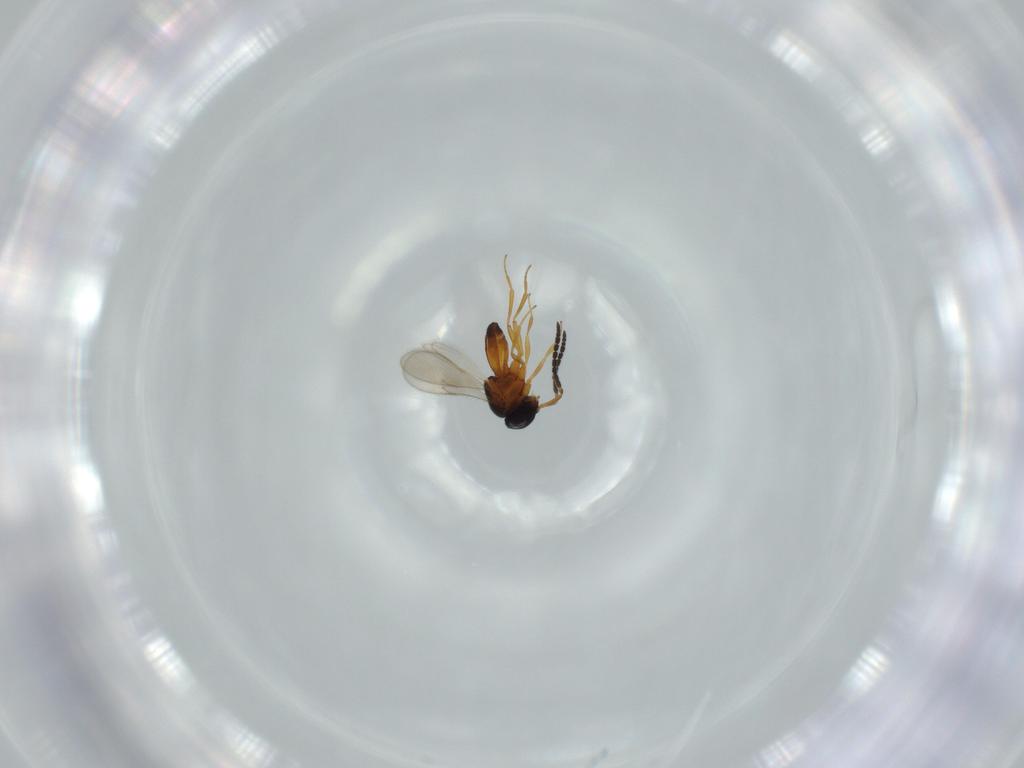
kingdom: Animalia
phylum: Arthropoda
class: Insecta
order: Hymenoptera
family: Scelionidae
